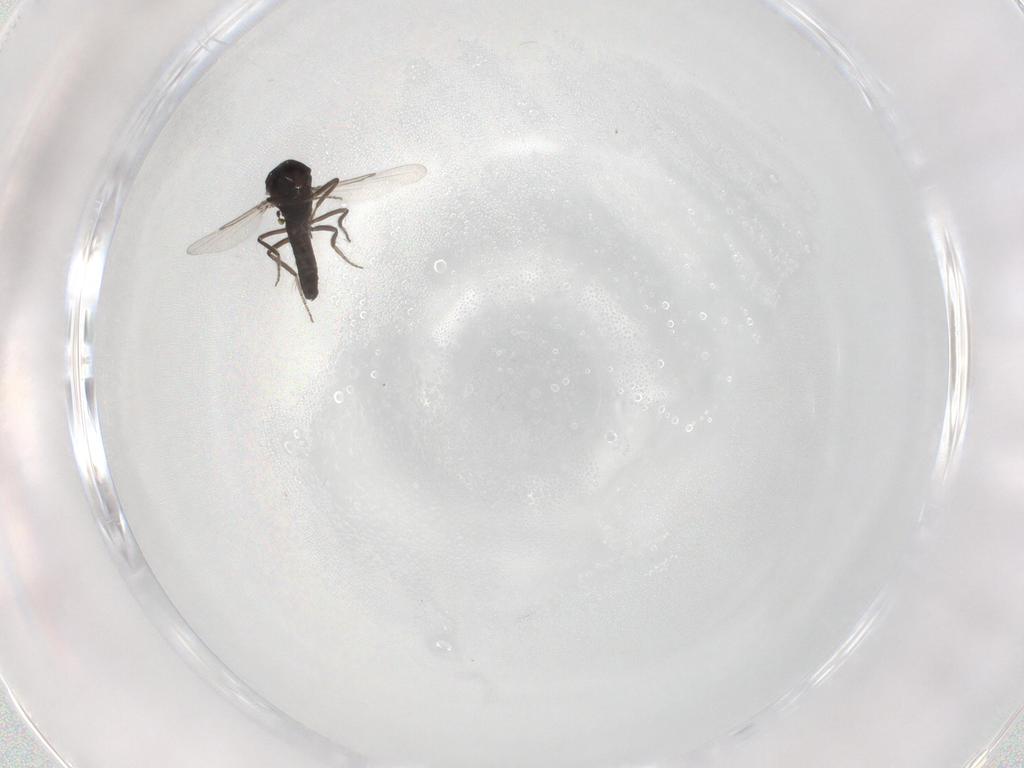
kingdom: Animalia
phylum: Arthropoda
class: Insecta
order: Diptera
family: Ceratopogonidae
